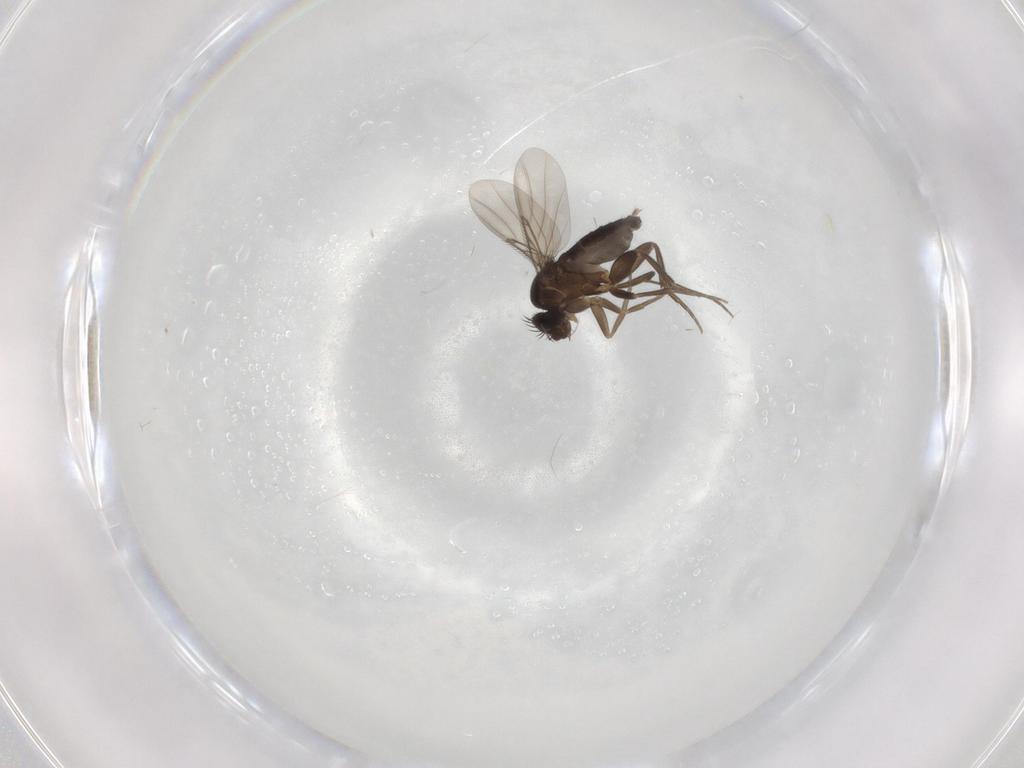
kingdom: Animalia
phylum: Arthropoda
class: Insecta
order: Diptera
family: Phoridae
